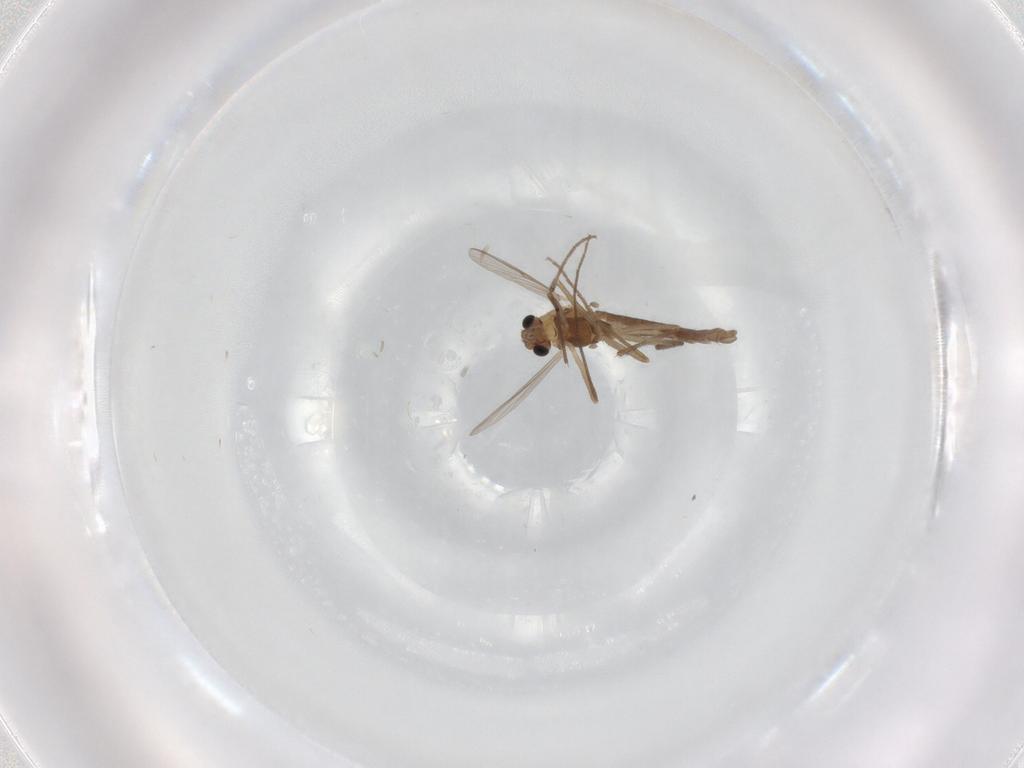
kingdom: Animalia
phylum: Arthropoda
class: Insecta
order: Diptera
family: Chironomidae
